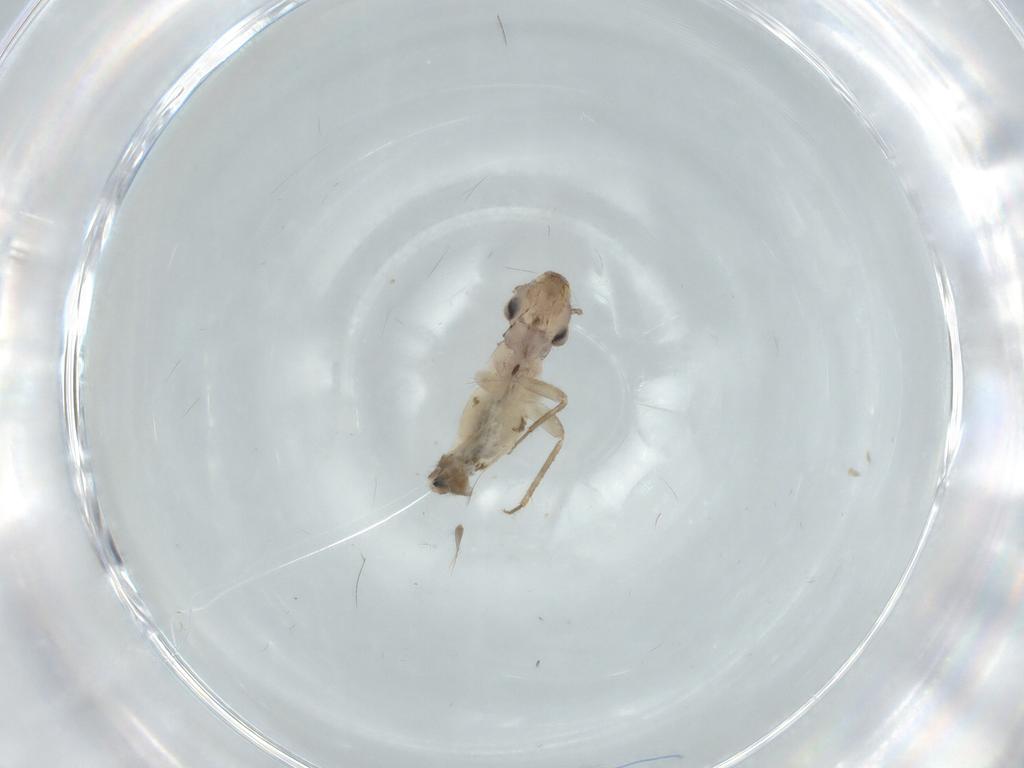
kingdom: Animalia
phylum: Arthropoda
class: Insecta
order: Psocodea
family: Lepidopsocidae
